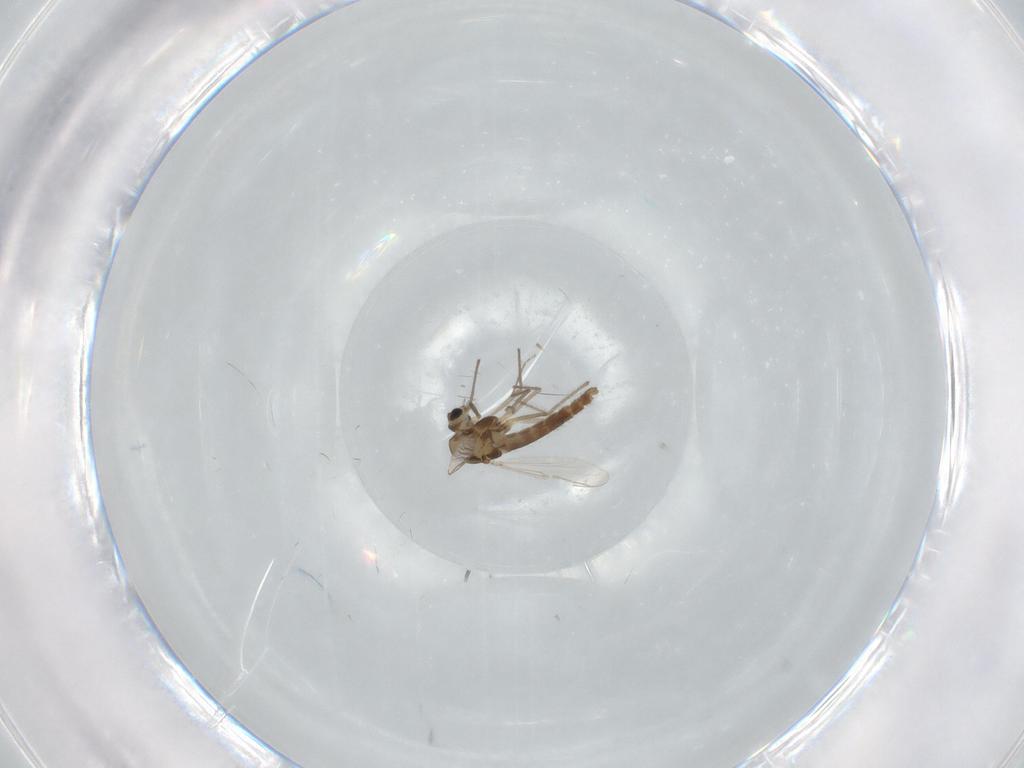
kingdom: Animalia
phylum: Arthropoda
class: Insecta
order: Diptera
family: Chironomidae
